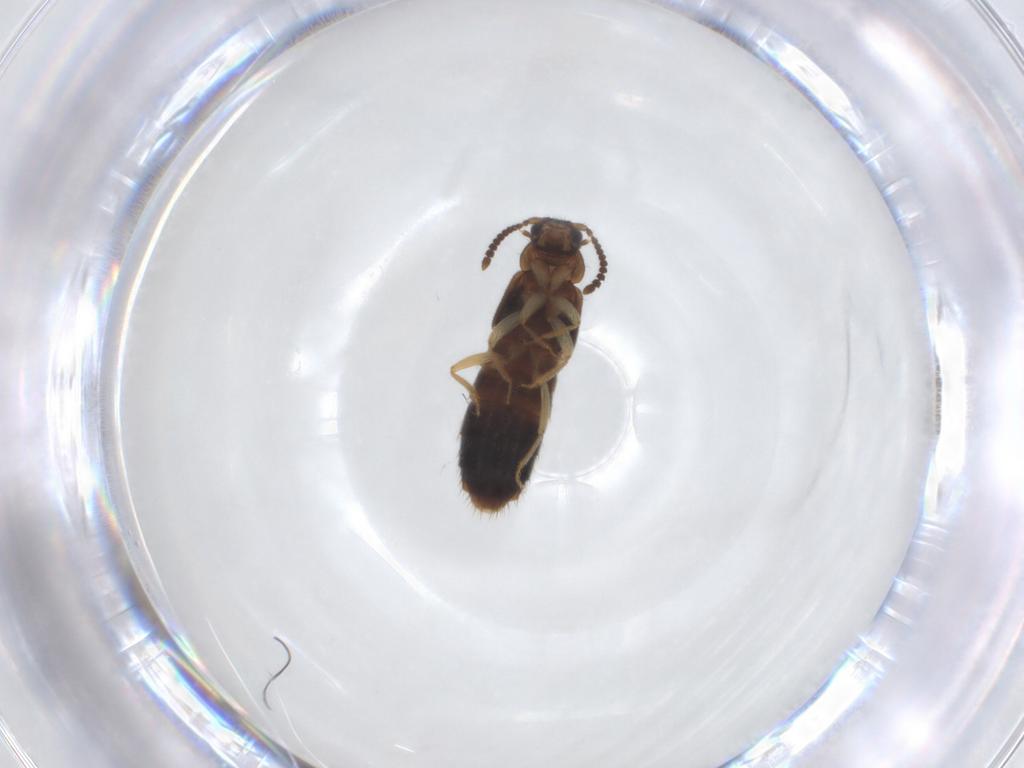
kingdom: Animalia
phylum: Arthropoda
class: Insecta
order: Coleoptera
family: Staphylinidae
